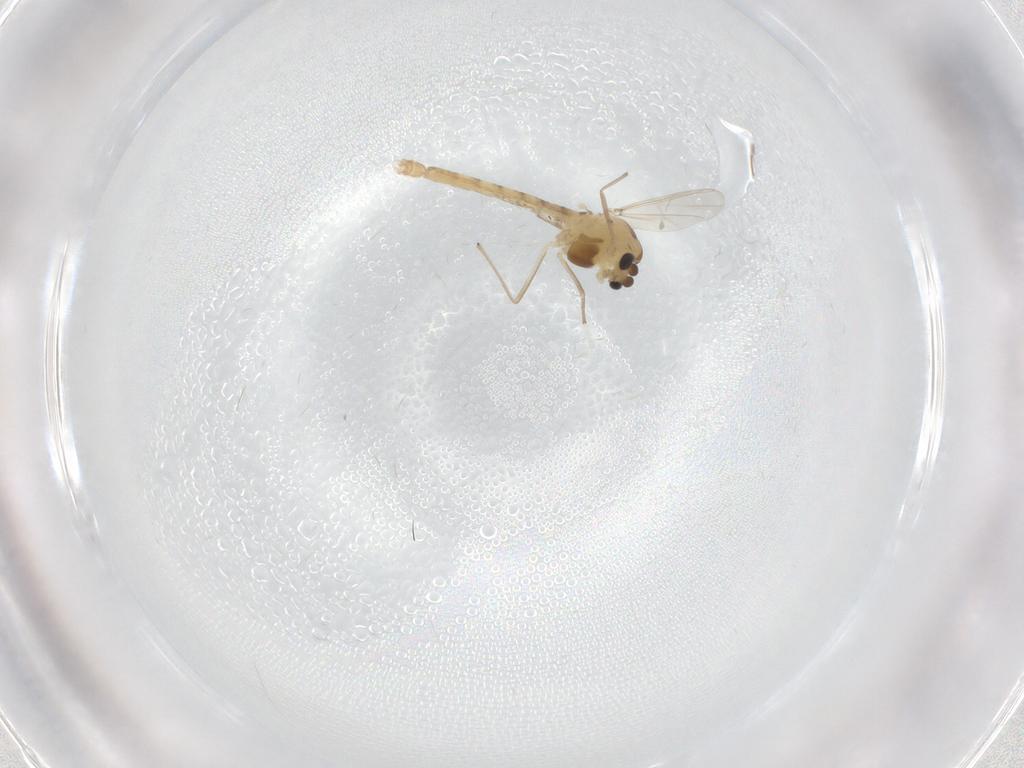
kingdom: Animalia
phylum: Arthropoda
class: Insecta
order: Diptera
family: Chironomidae
